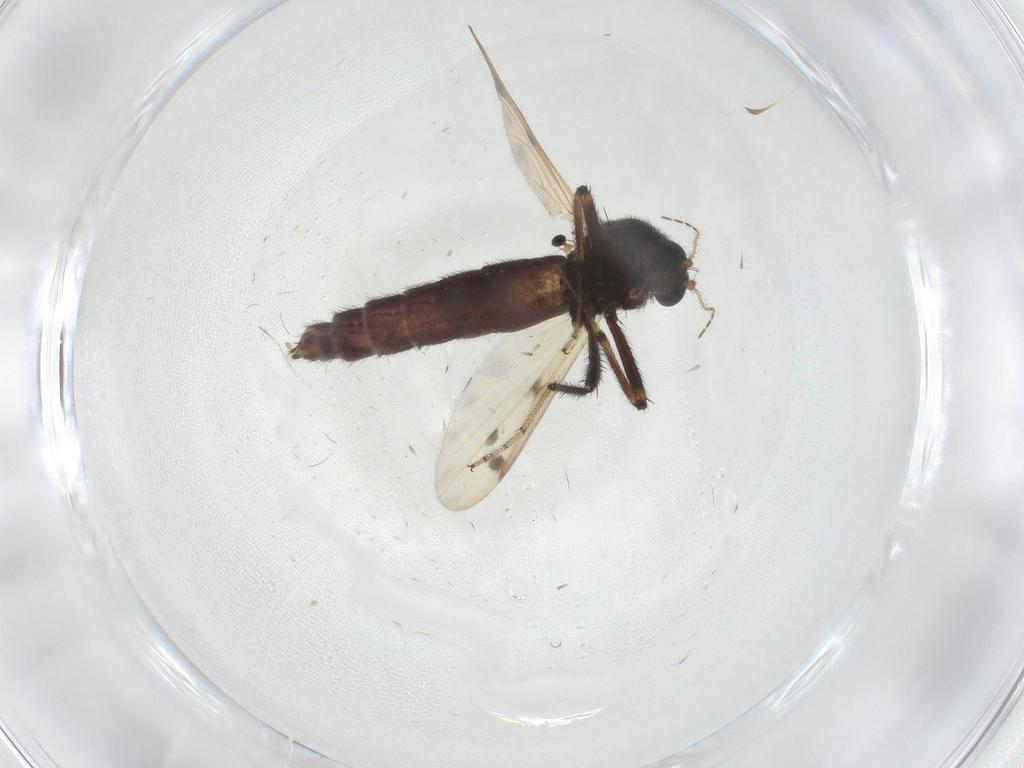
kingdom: Animalia
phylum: Arthropoda
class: Insecta
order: Diptera
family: Mycetophilidae
